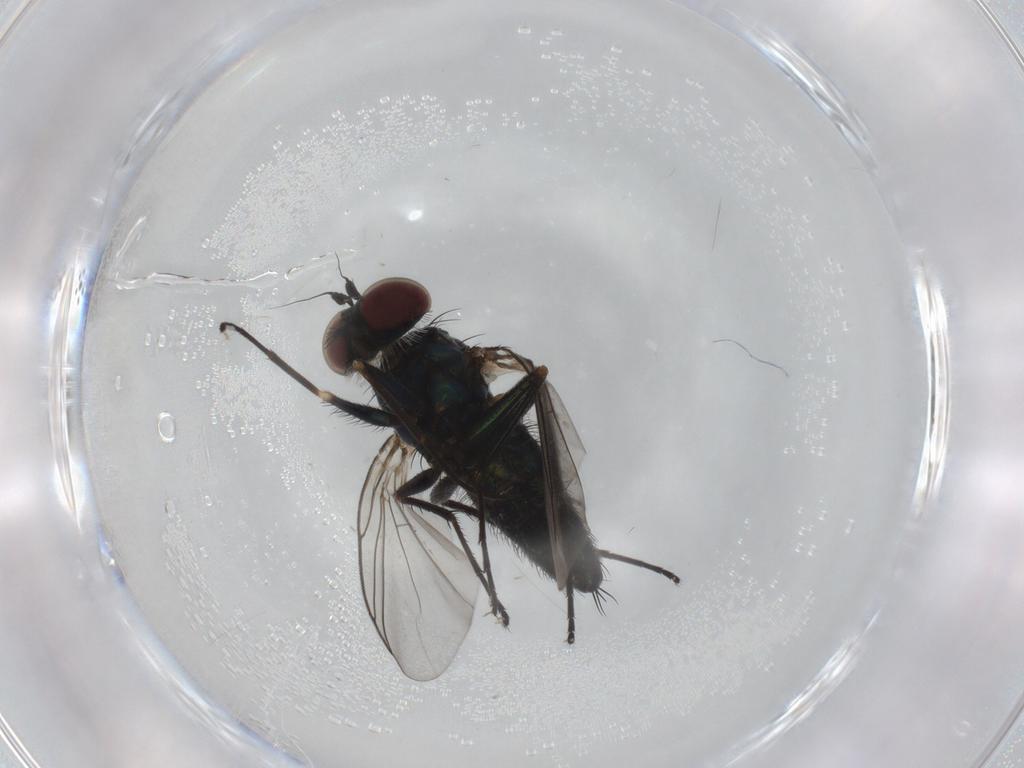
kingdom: Animalia
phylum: Arthropoda
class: Insecta
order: Diptera
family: Dolichopodidae
